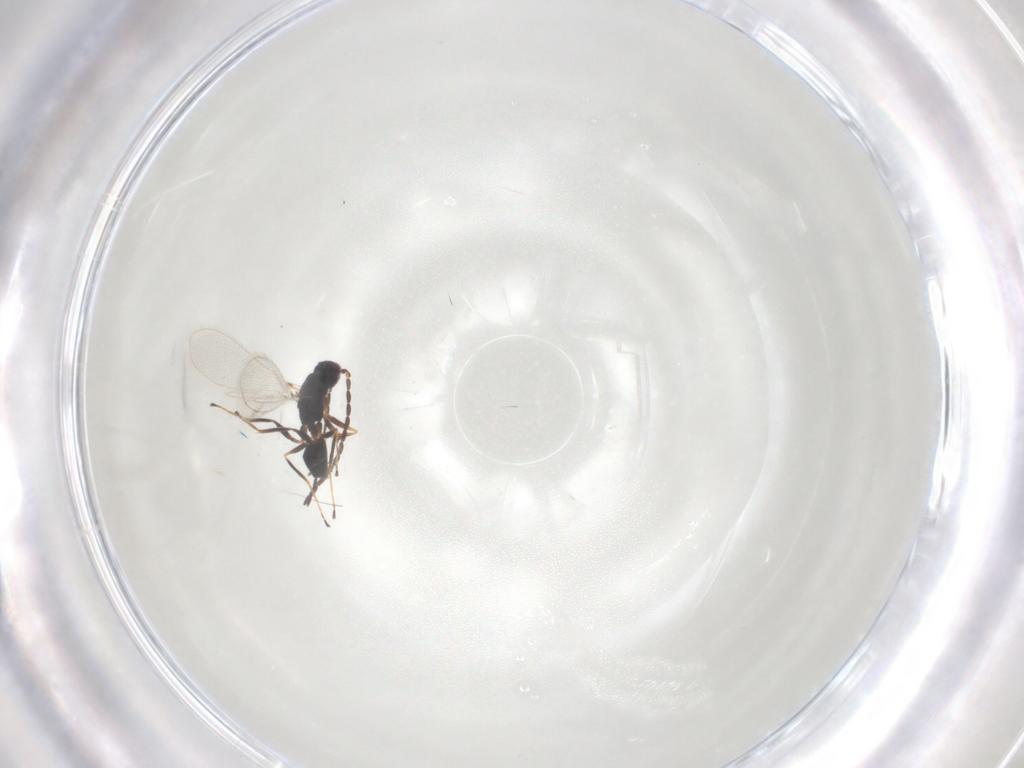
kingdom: Animalia
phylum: Arthropoda
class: Insecta
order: Hymenoptera
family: Mymaridae
